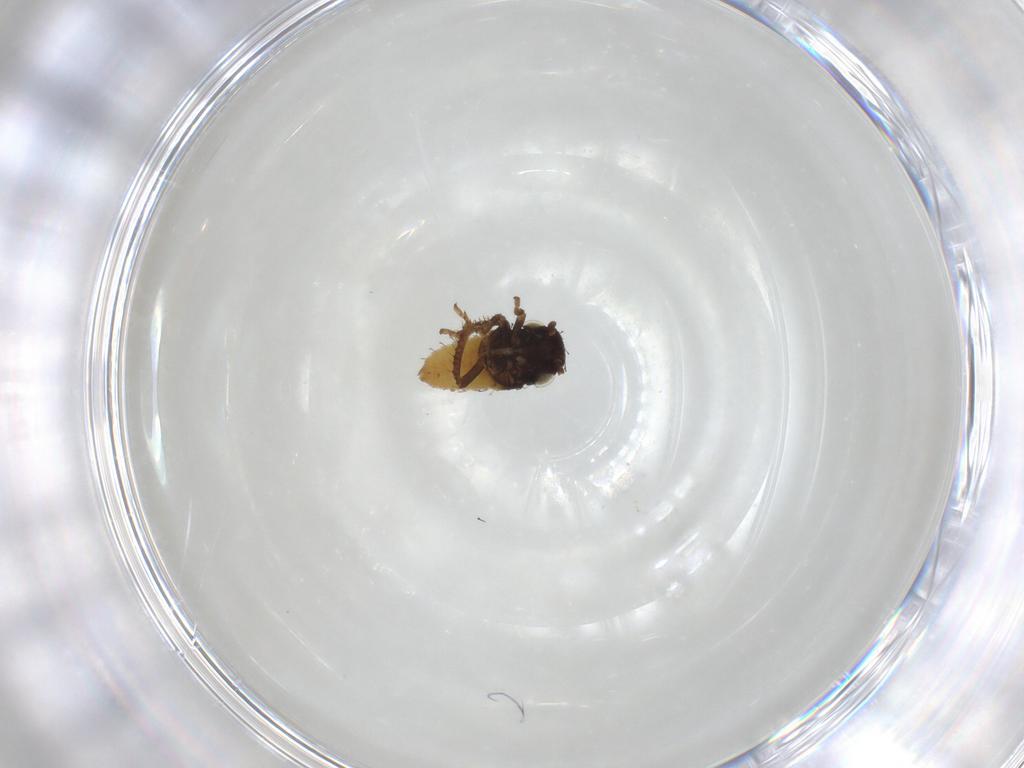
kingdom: Animalia
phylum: Arthropoda
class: Insecta
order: Hemiptera
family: Cicadellidae
